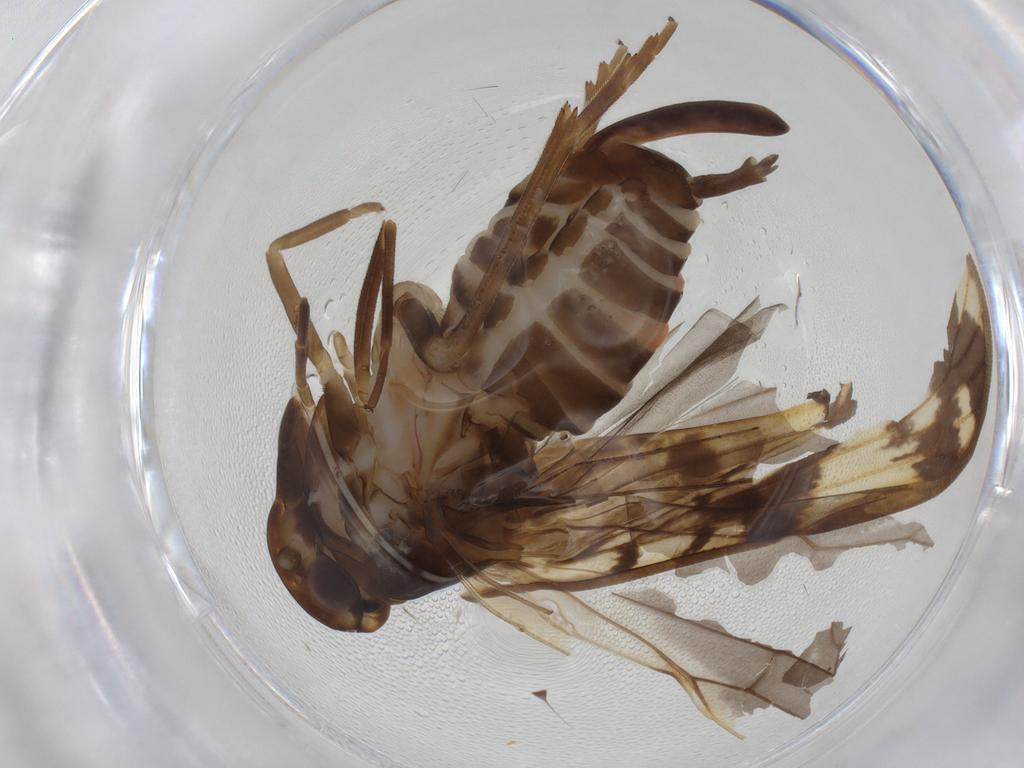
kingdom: Animalia
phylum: Arthropoda
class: Insecta
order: Hemiptera
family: Cixiidae
